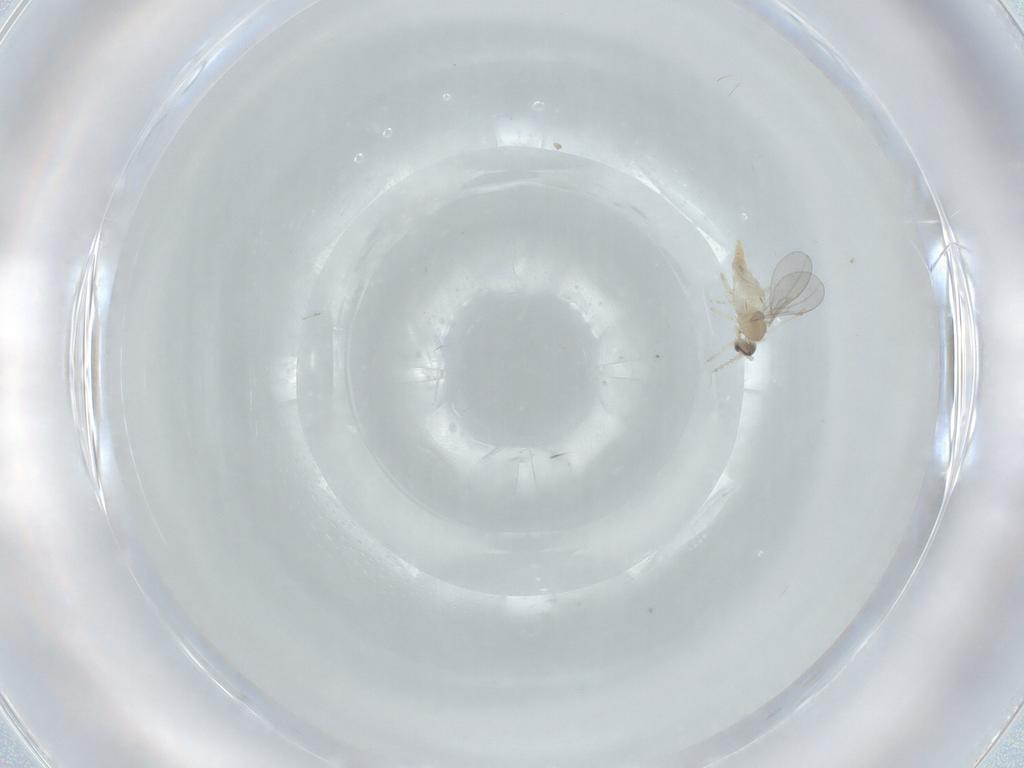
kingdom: Animalia
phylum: Arthropoda
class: Insecta
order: Diptera
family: Cecidomyiidae
